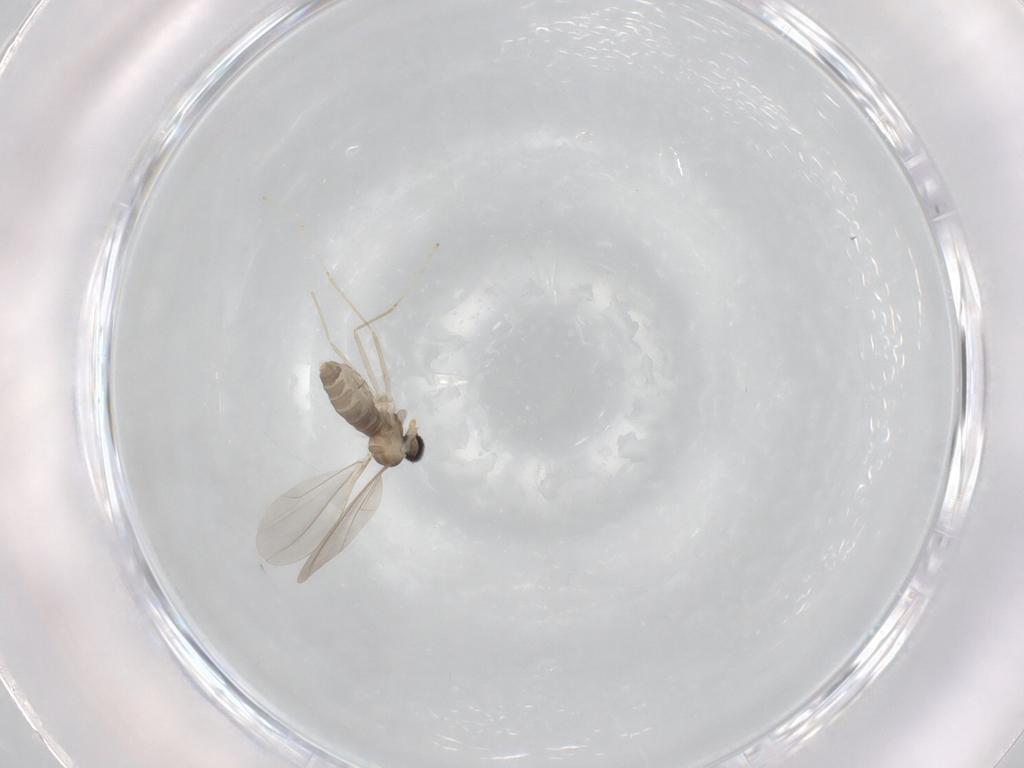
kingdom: Animalia
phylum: Arthropoda
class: Insecta
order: Diptera
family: Cecidomyiidae
